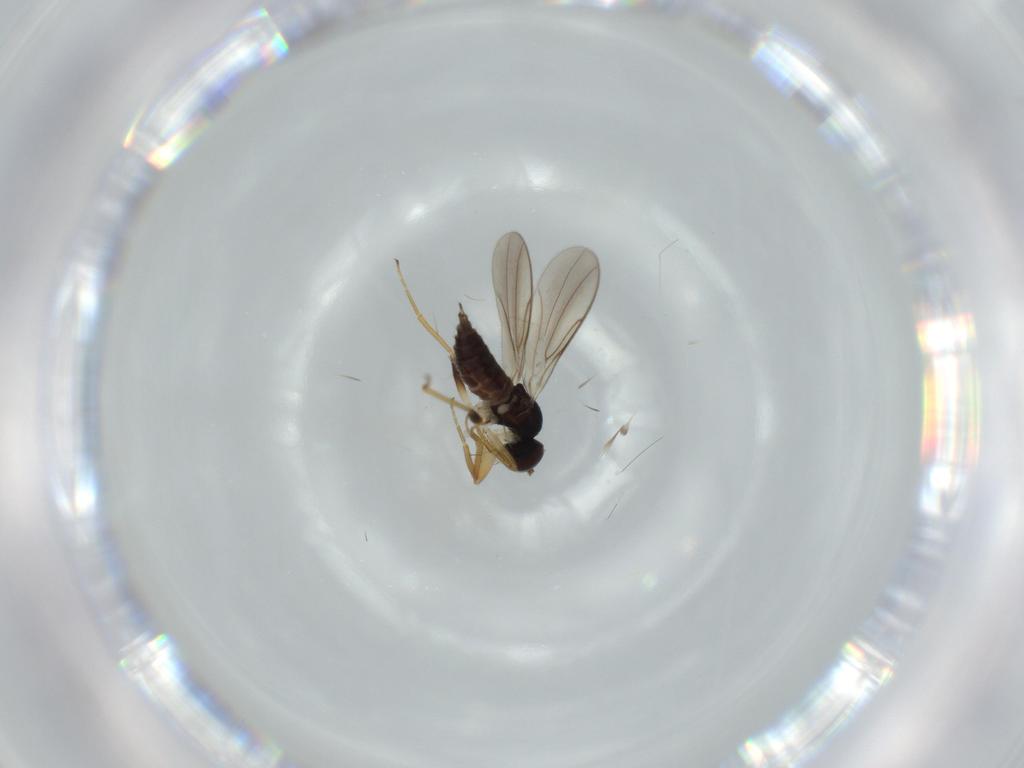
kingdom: Animalia
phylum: Arthropoda
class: Insecta
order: Diptera
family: Hybotidae
